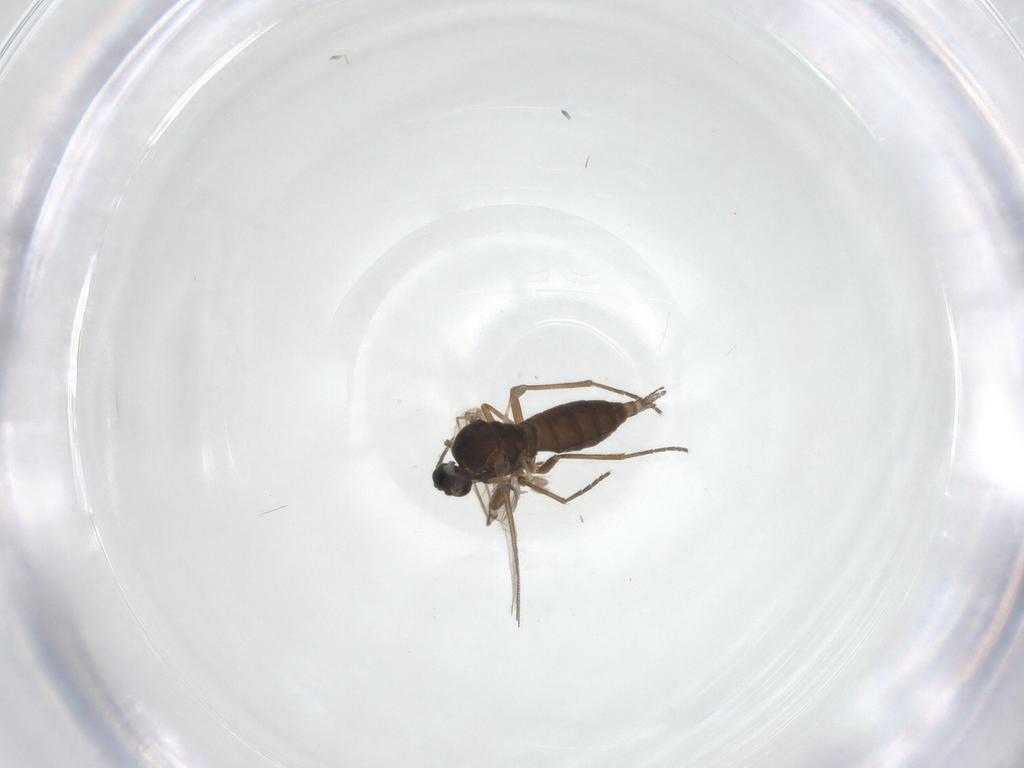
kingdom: Animalia
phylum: Arthropoda
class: Insecta
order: Diptera
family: Sciaridae
